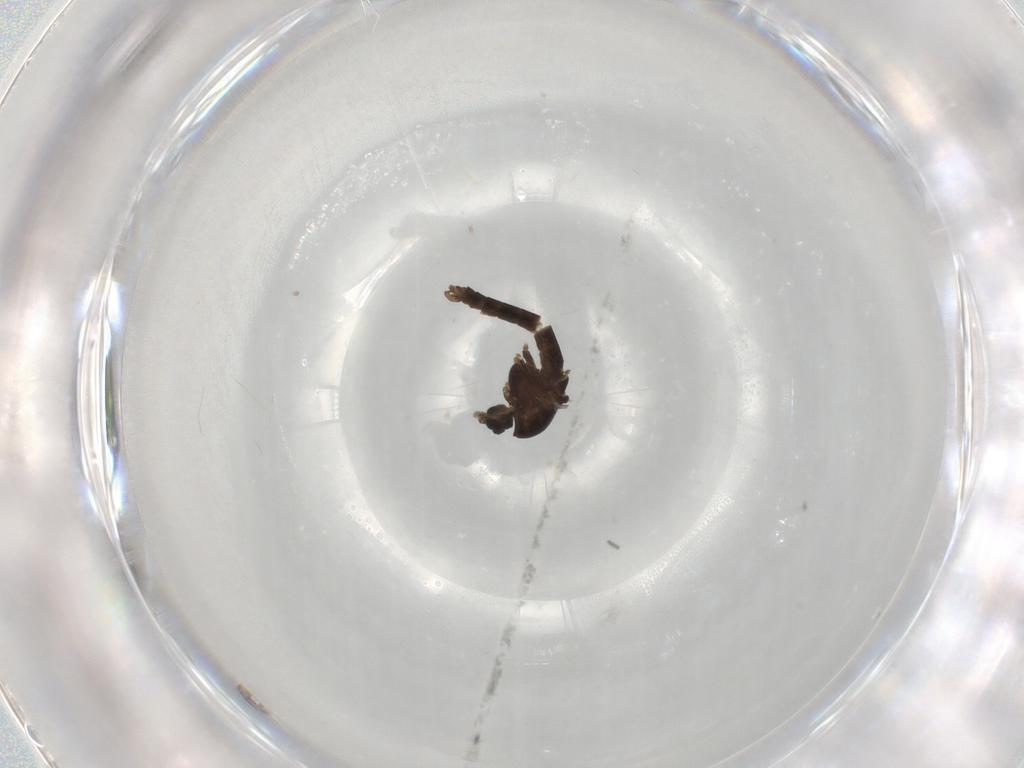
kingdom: Animalia
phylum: Arthropoda
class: Insecta
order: Diptera
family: Chironomidae
